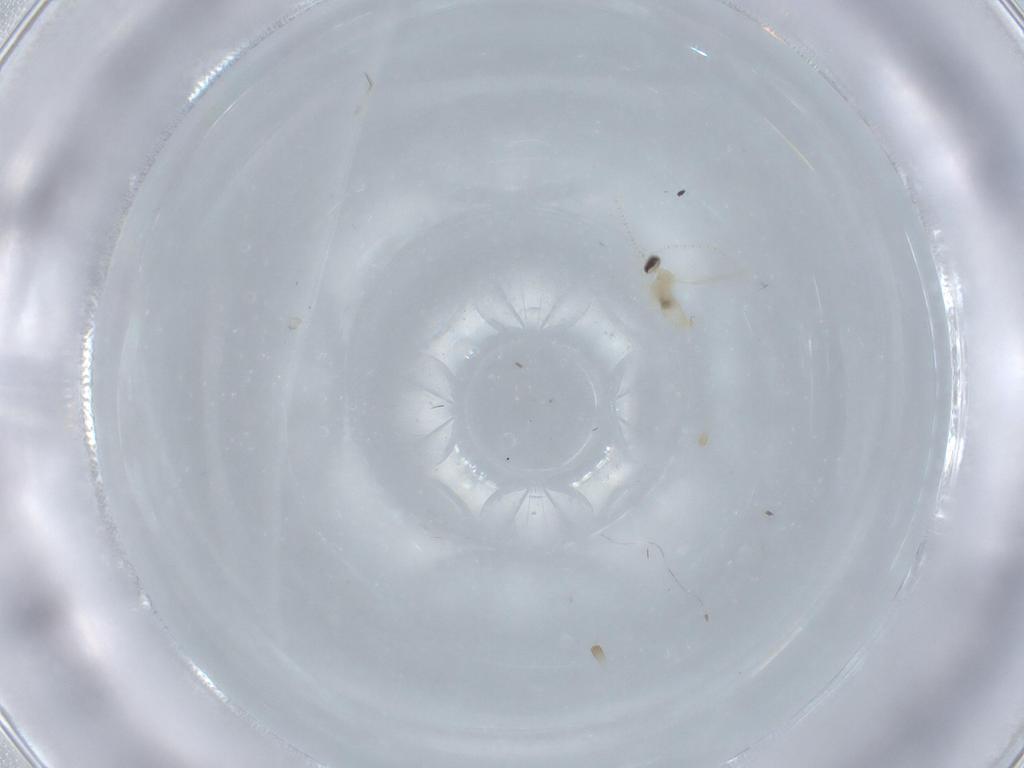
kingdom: Animalia
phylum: Arthropoda
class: Insecta
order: Diptera
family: Cecidomyiidae
